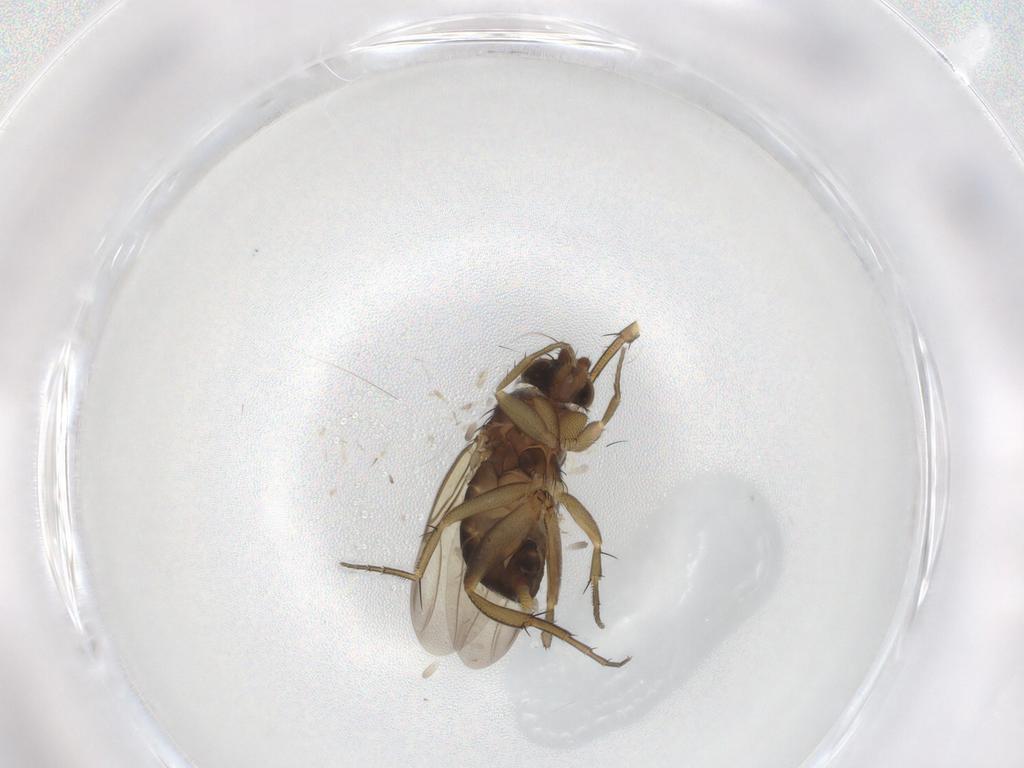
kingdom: Animalia
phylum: Arthropoda
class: Insecta
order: Diptera
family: Phoridae
